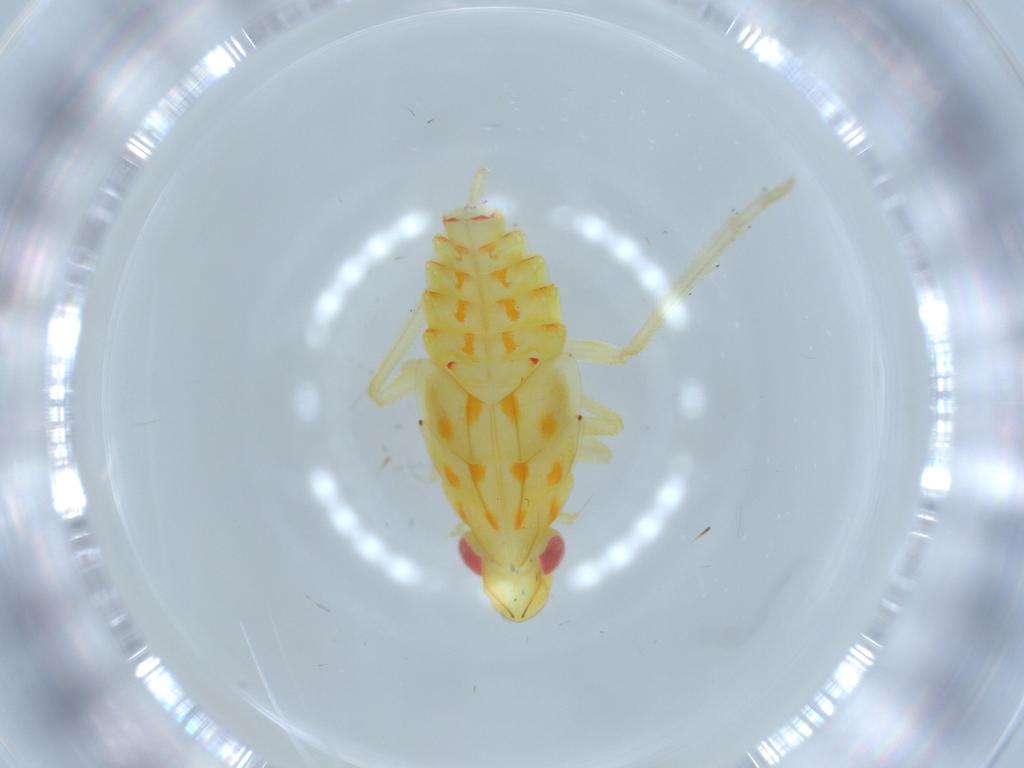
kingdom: Animalia
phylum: Arthropoda
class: Insecta
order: Hemiptera
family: Tropiduchidae
